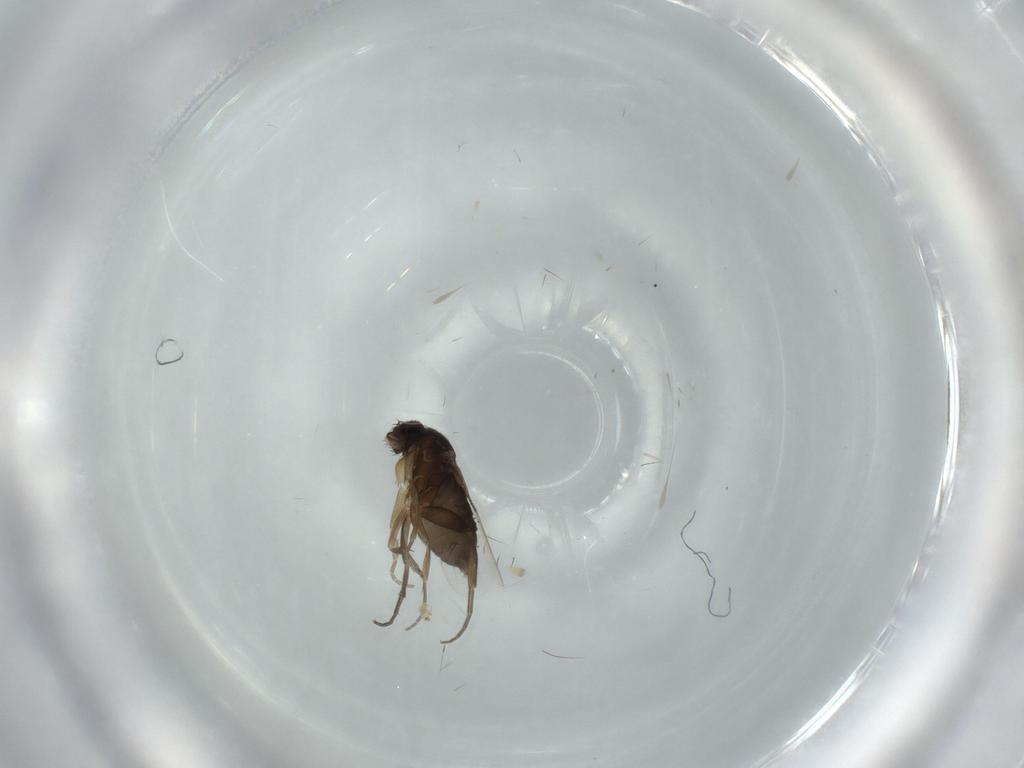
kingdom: Animalia
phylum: Arthropoda
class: Insecta
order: Diptera
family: Phoridae
